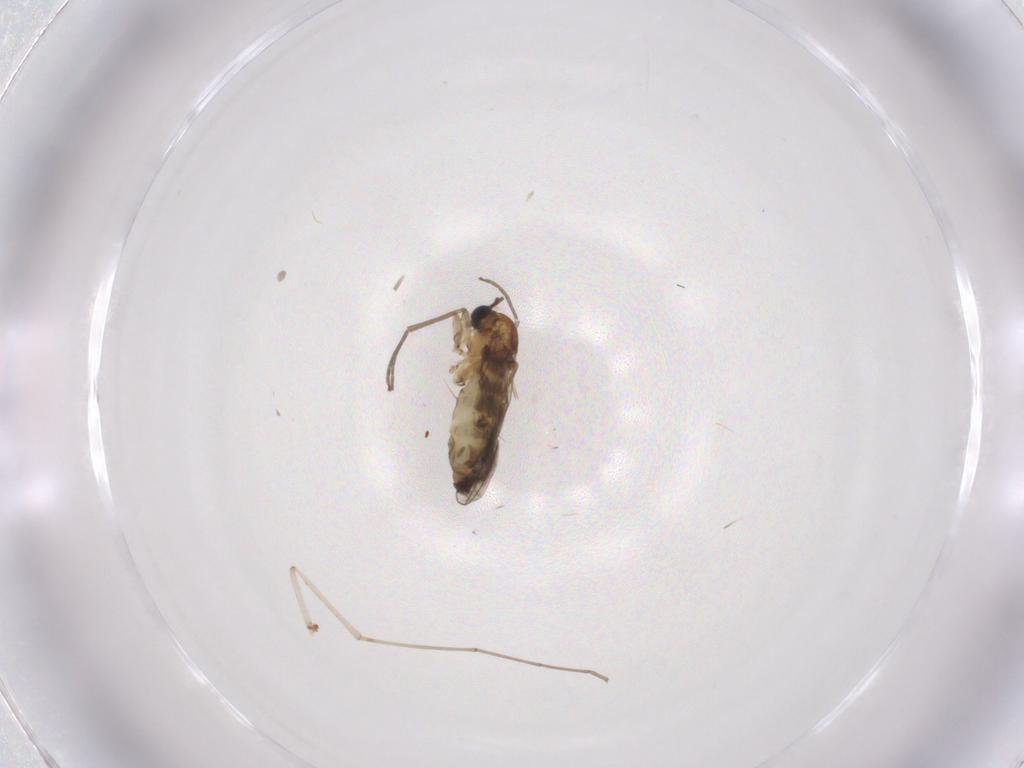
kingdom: Animalia
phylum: Arthropoda
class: Insecta
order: Diptera
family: Sciaridae
